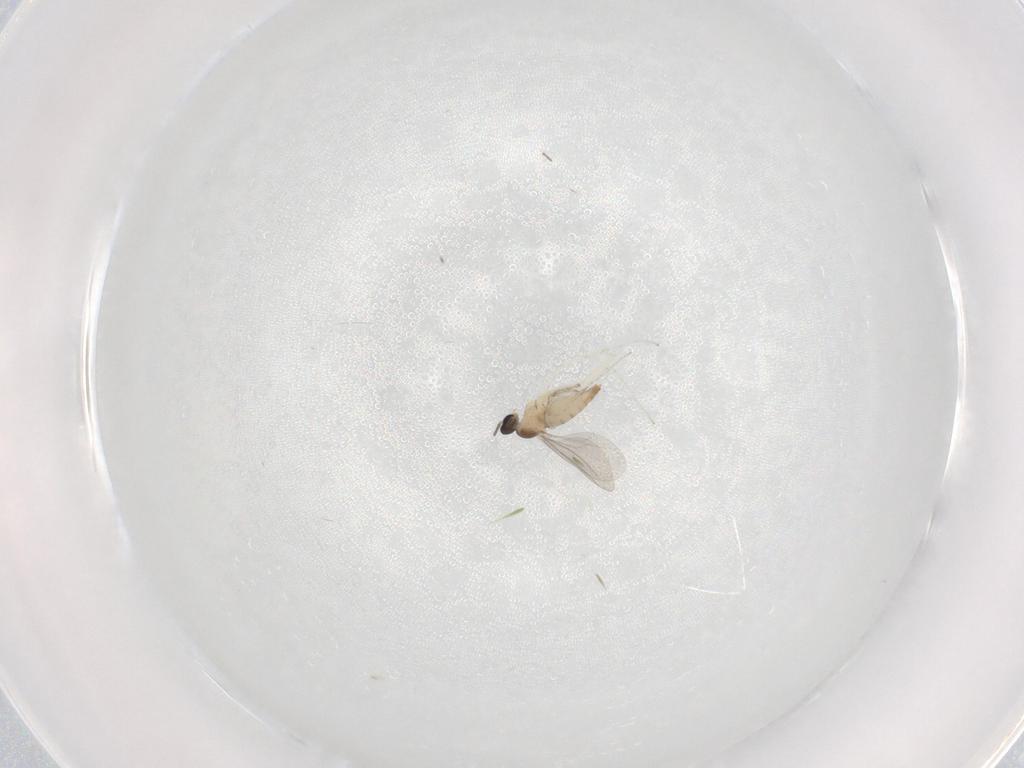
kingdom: Animalia
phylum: Arthropoda
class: Insecta
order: Diptera
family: Cecidomyiidae
